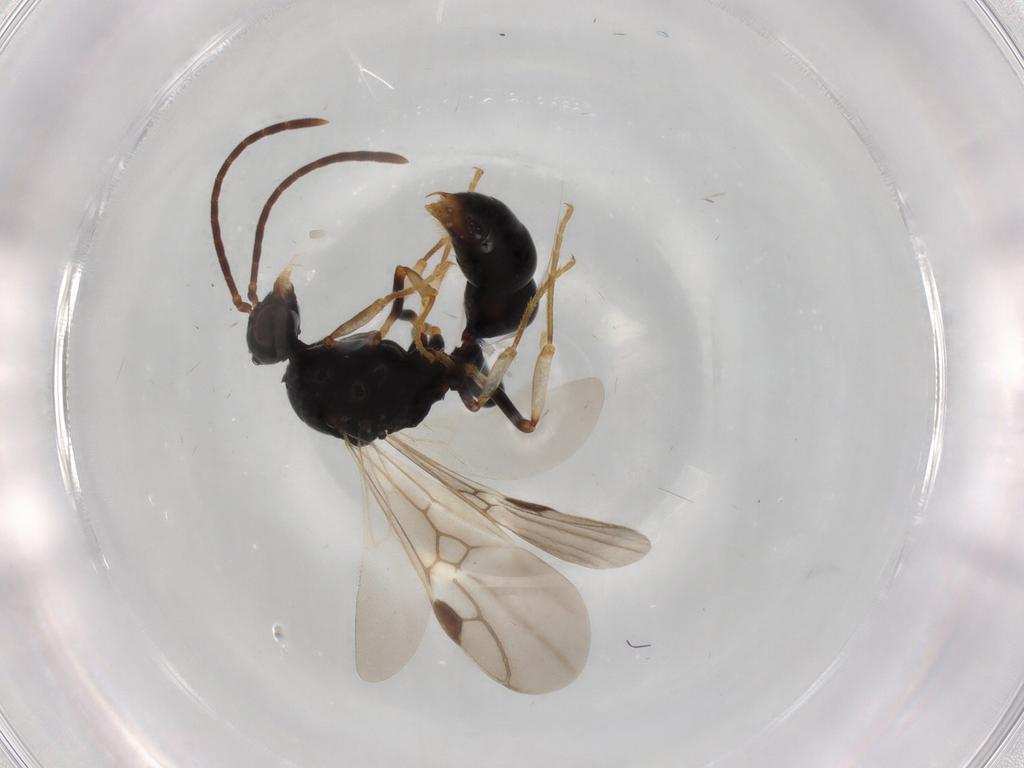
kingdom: Animalia
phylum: Arthropoda
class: Insecta
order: Hymenoptera
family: Formicidae
